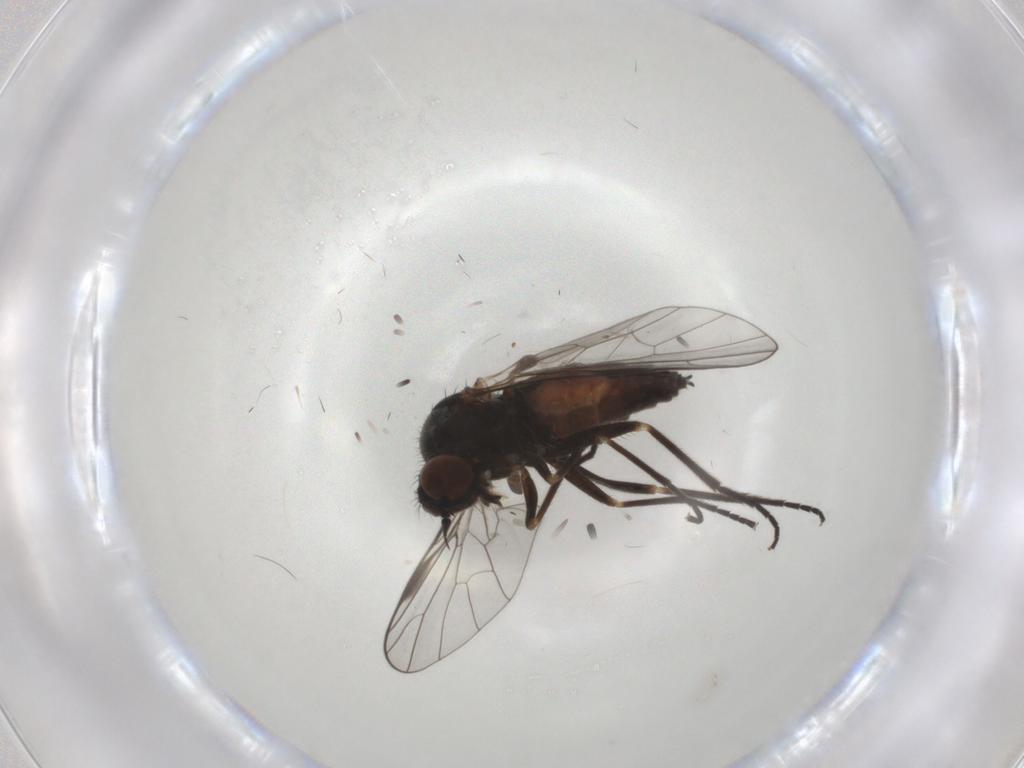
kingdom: Animalia
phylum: Arthropoda
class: Insecta
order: Diptera
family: Empididae
